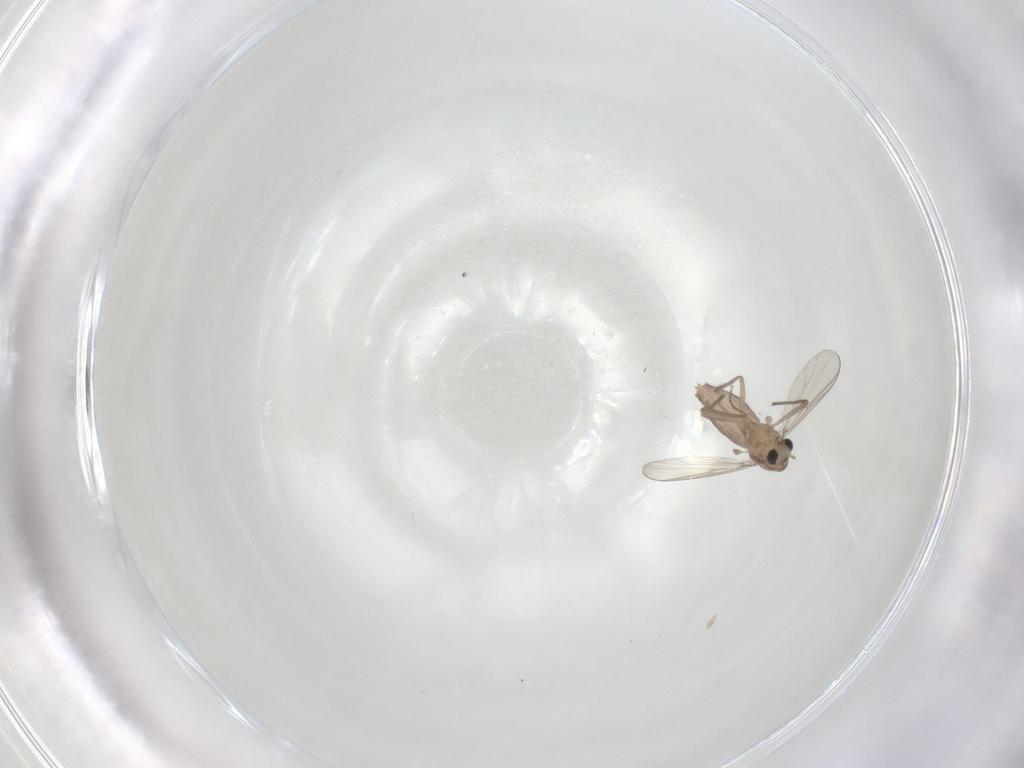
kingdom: Animalia
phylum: Arthropoda
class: Insecta
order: Diptera
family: Chironomidae
